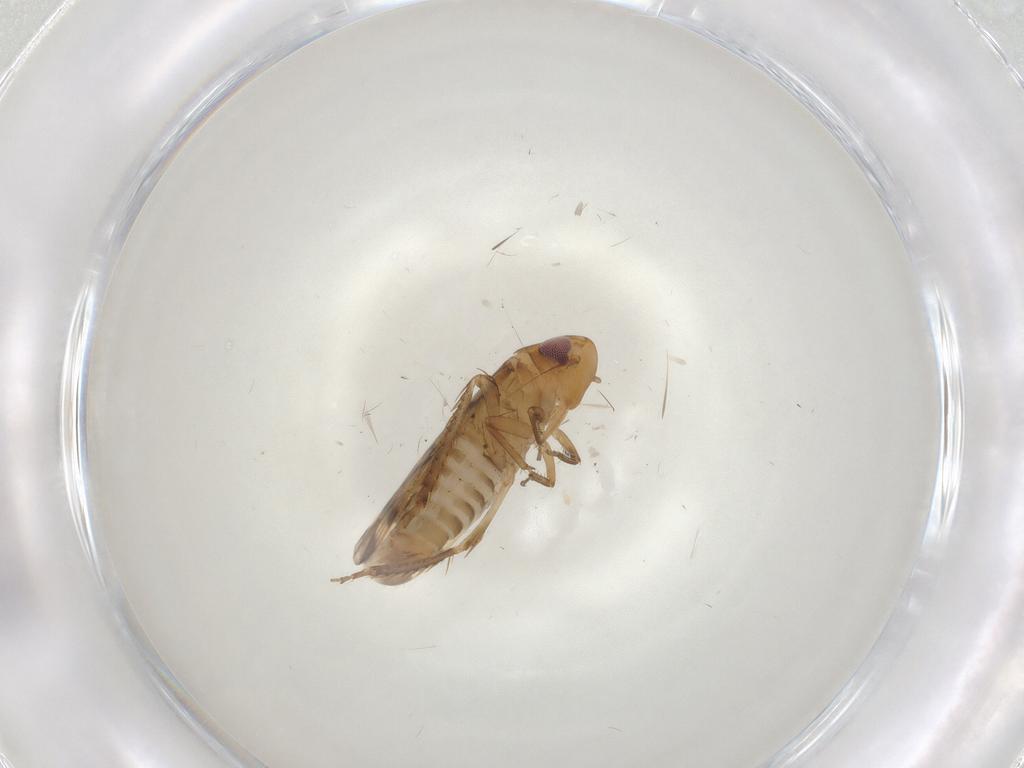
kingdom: Animalia
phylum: Arthropoda
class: Insecta
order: Hemiptera
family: Cicadellidae
